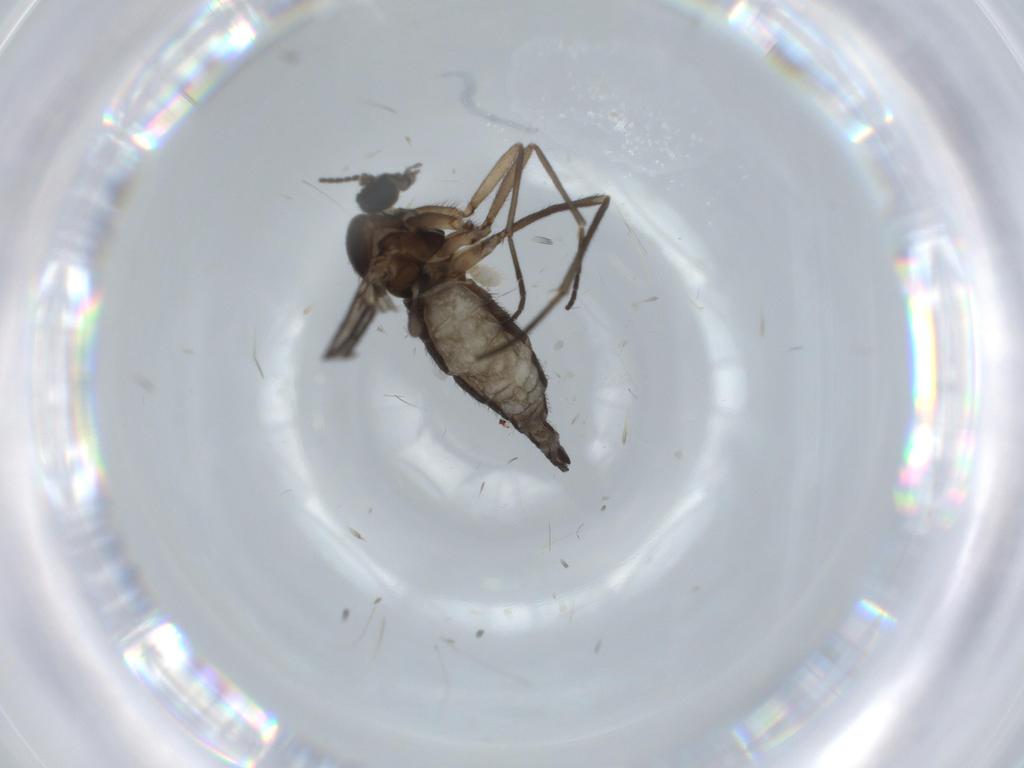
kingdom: Animalia
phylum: Arthropoda
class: Insecta
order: Diptera
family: Sciaridae
